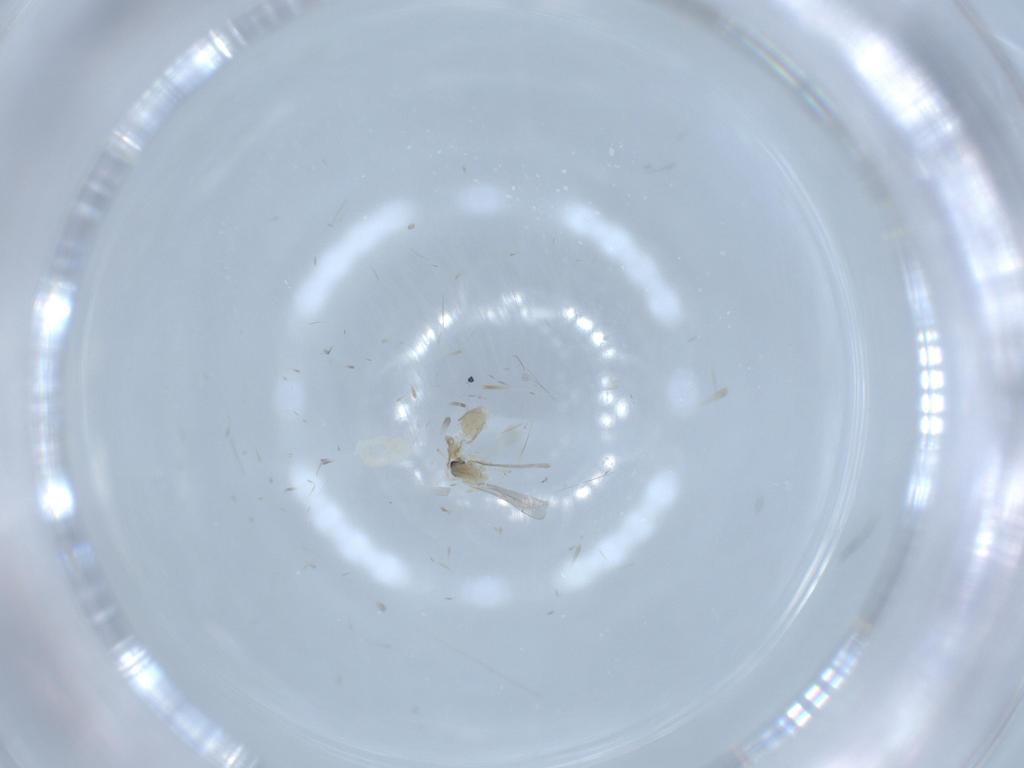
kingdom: Animalia
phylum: Arthropoda
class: Insecta
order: Diptera
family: Cecidomyiidae
